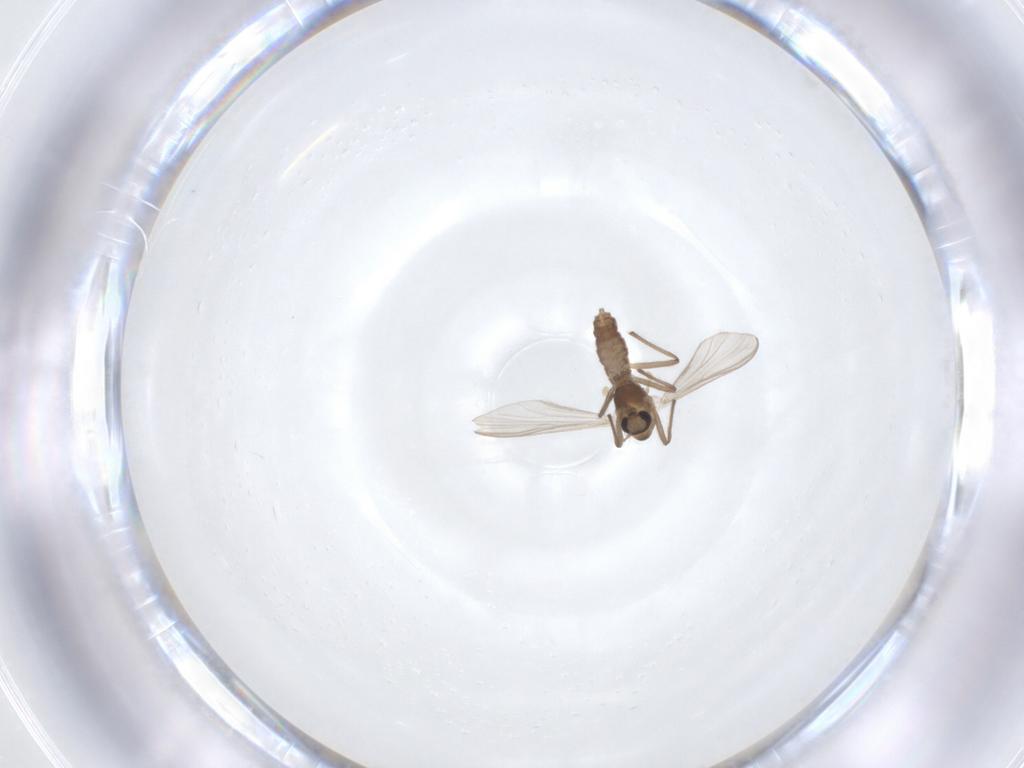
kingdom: Animalia
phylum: Arthropoda
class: Insecta
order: Diptera
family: Chironomidae
